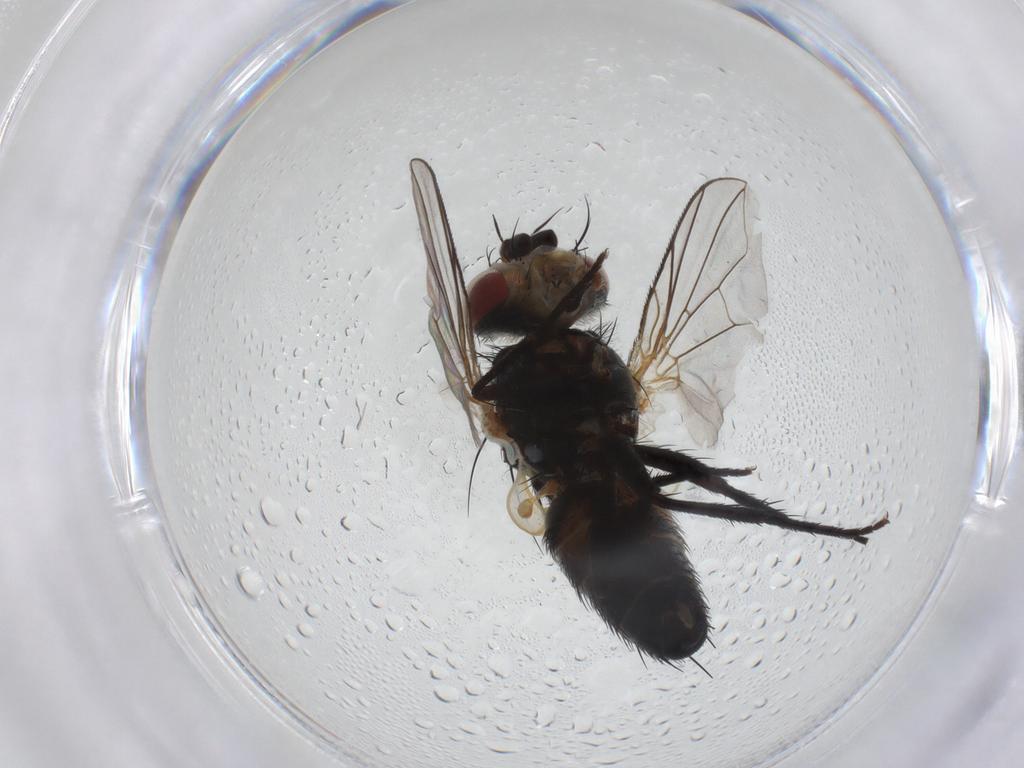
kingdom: Animalia
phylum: Arthropoda
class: Insecta
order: Diptera
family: Tachinidae
